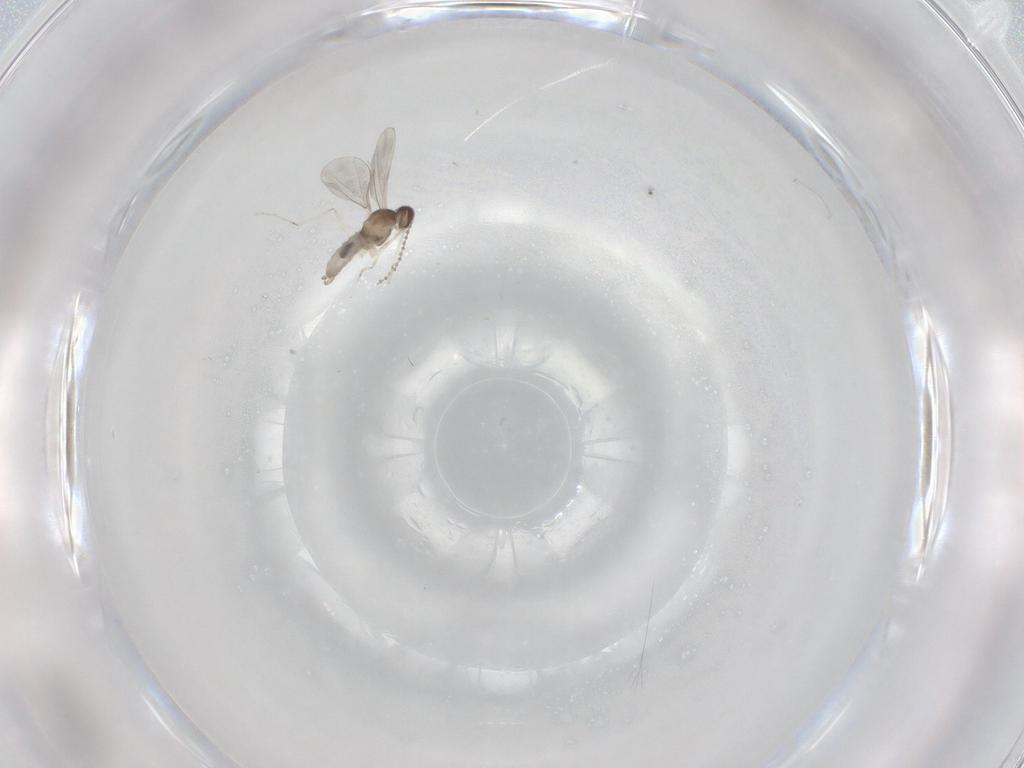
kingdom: Animalia
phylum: Arthropoda
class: Insecta
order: Diptera
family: Cecidomyiidae
